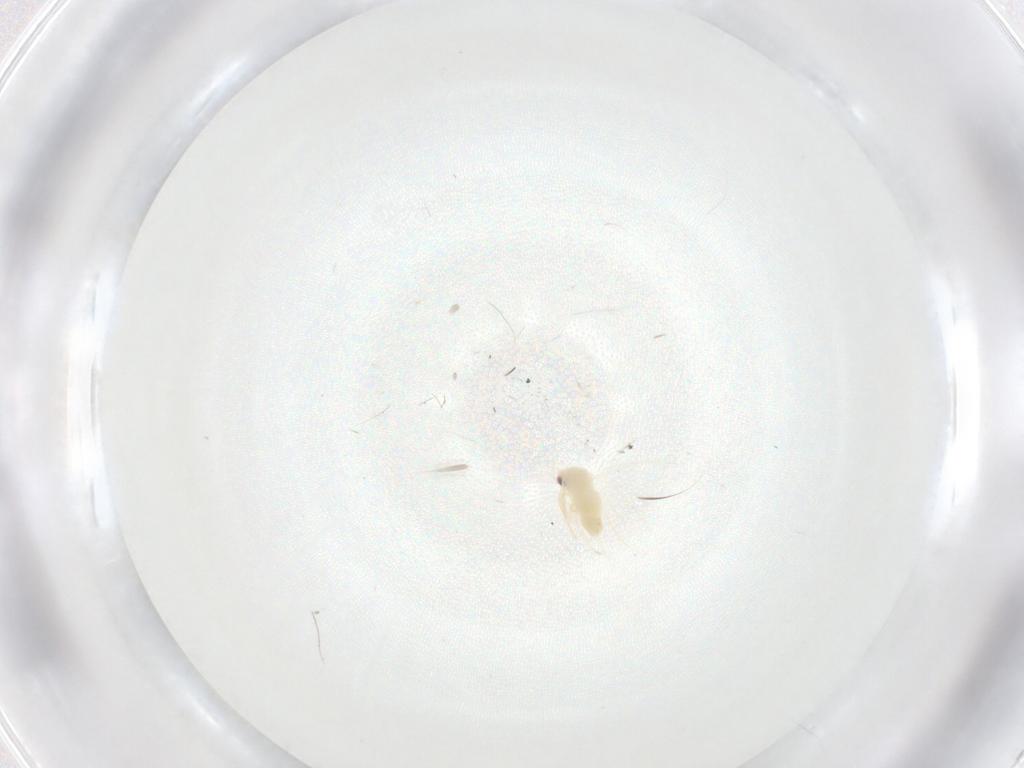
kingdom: Animalia
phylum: Arthropoda
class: Insecta
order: Hemiptera
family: Aleyrodidae
